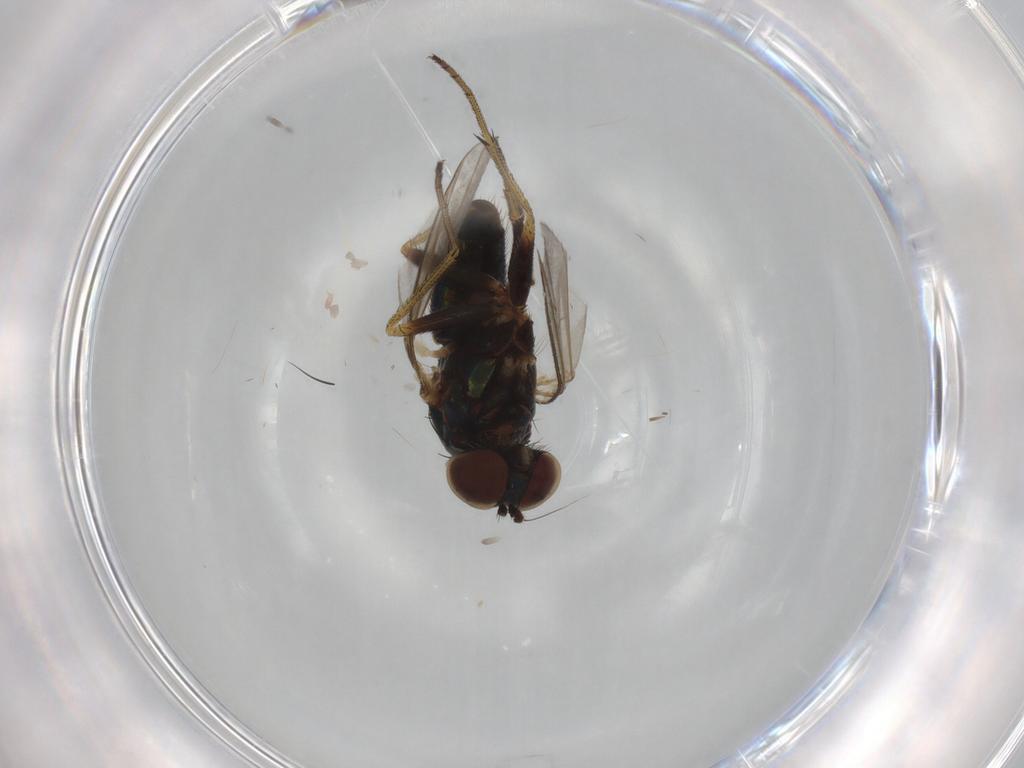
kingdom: Animalia
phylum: Arthropoda
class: Insecta
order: Diptera
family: Dolichopodidae
